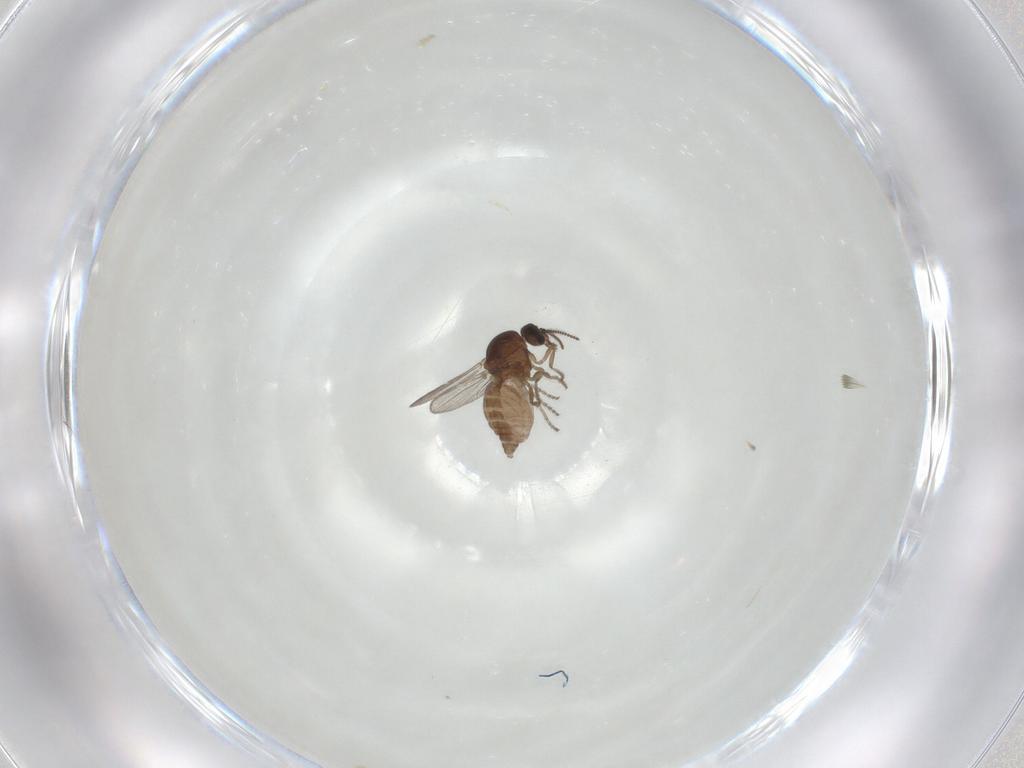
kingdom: Animalia
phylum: Arthropoda
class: Insecta
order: Diptera
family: Ceratopogonidae
